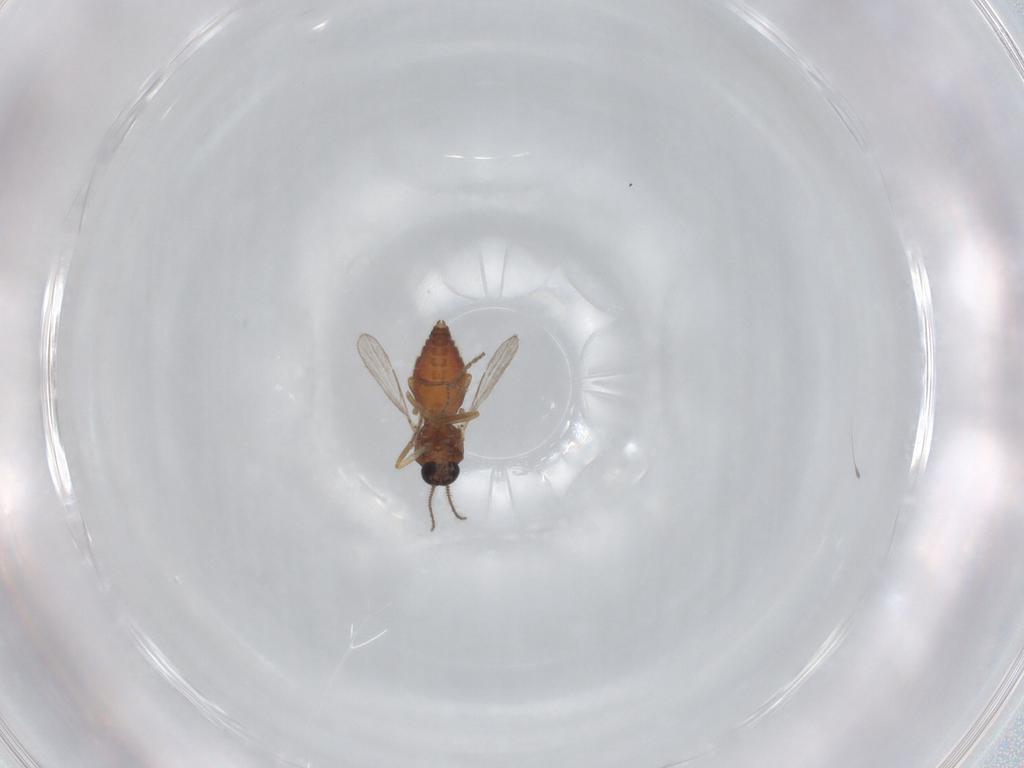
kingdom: Animalia
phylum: Arthropoda
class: Insecta
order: Diptera
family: Ceratopogonidae
